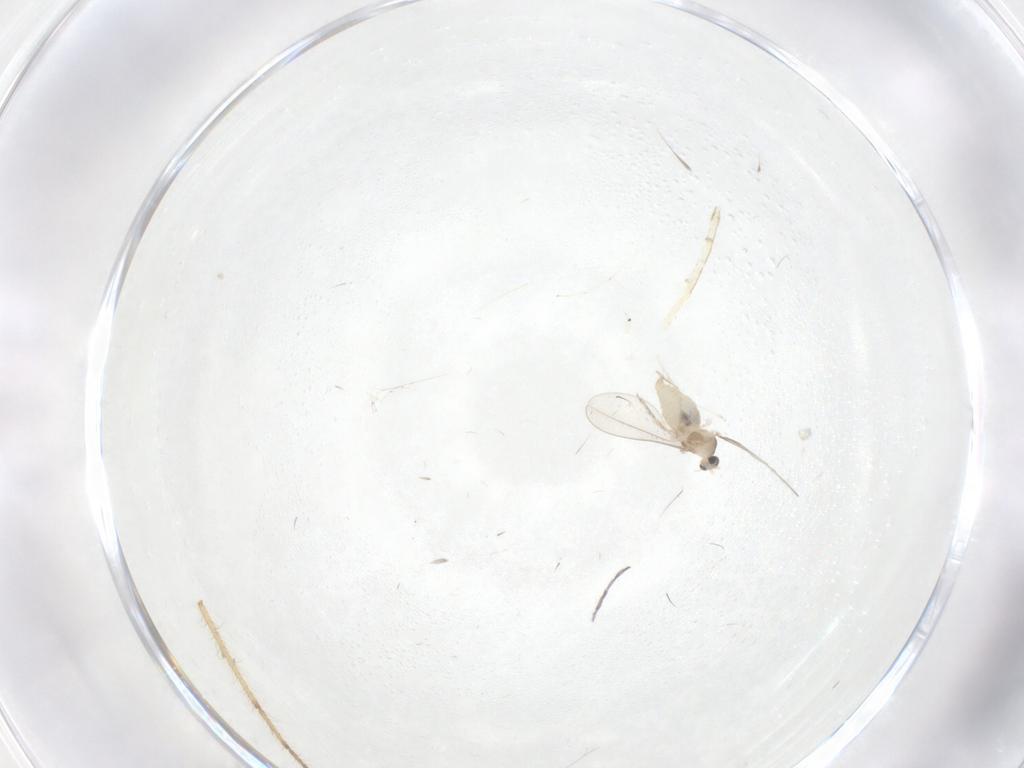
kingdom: Animalia
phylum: Arthropoda
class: Insecta
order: Diptera
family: Cecidomyiidae
